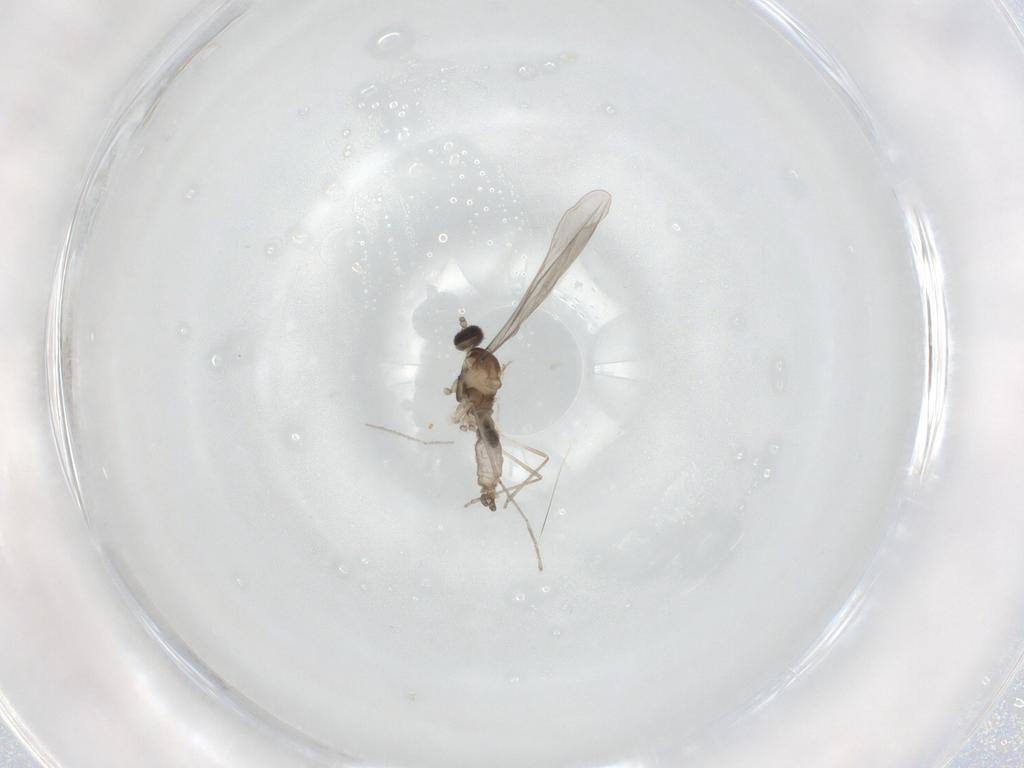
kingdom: Animalia
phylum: Arthropoda
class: Insecta
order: Diptera
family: Cecidomyiidae
